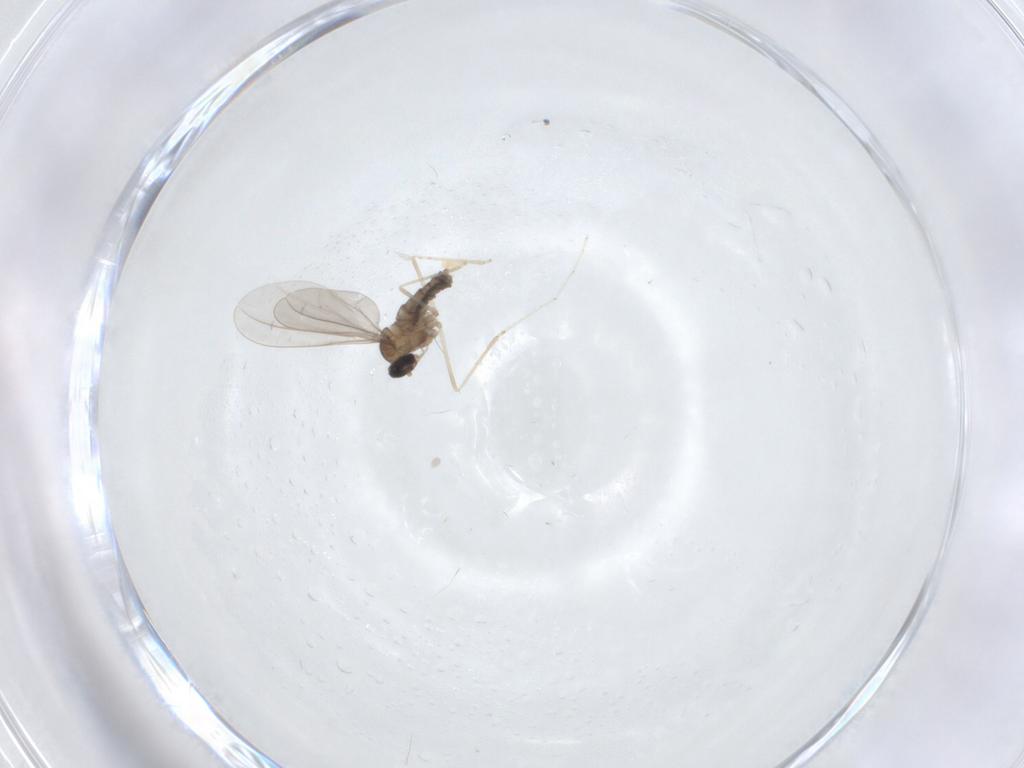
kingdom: Animalia
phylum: Arthropoda
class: Insecta
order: Diptera
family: Cecidomyiidae
